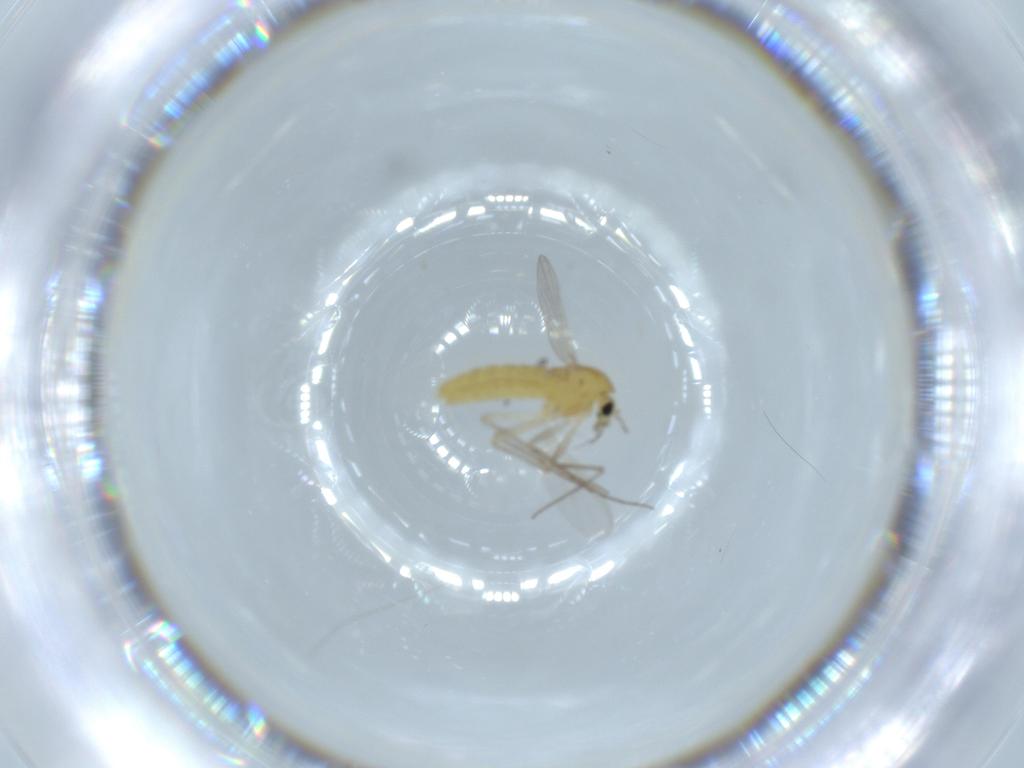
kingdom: Animalia
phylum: Arthropoda
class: Insecta
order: Diptera
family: Chironomidae
